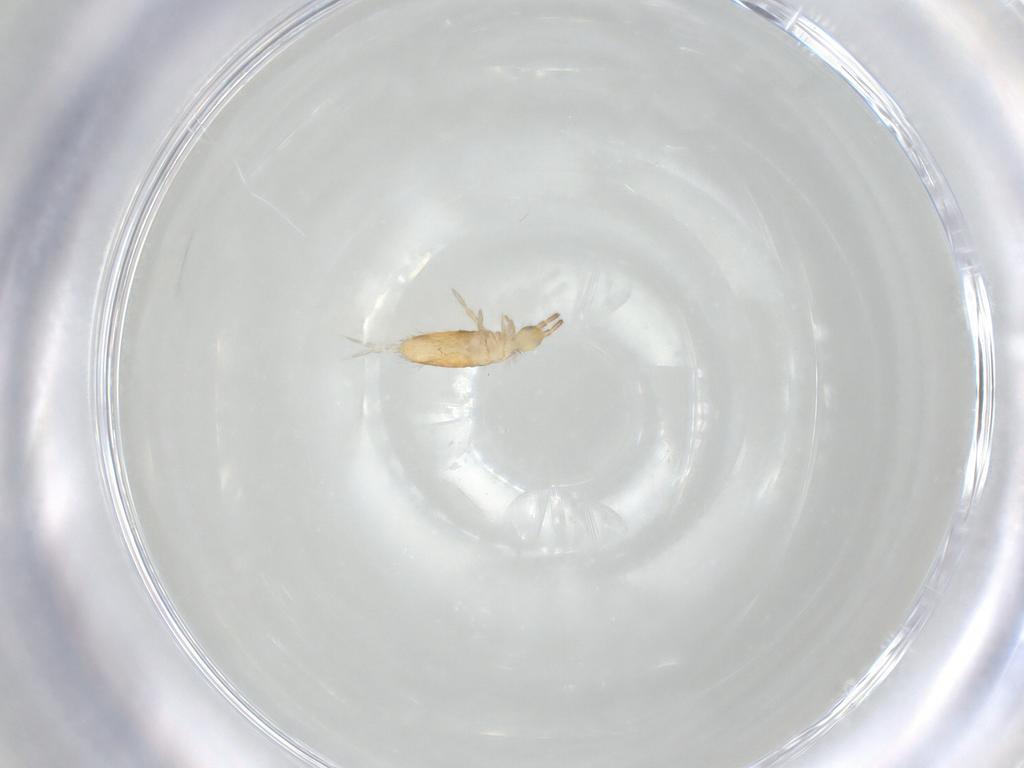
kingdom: Animalia
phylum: Arthropoda
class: Collembola
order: Entomobryomorpha
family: Entomobryidae
